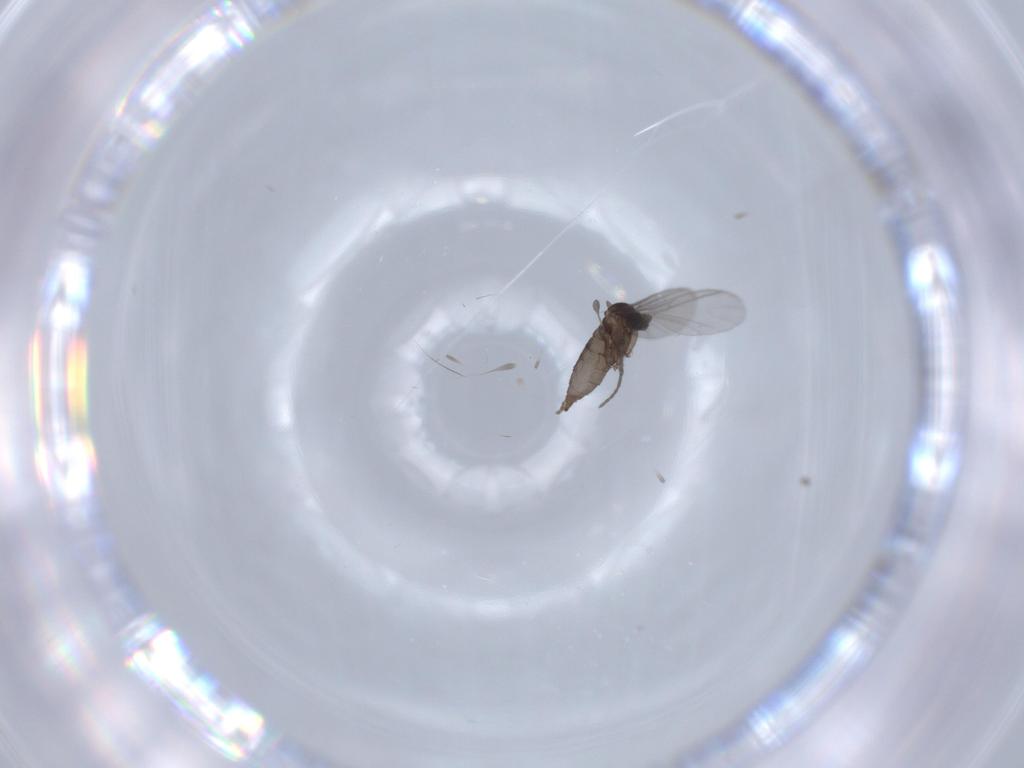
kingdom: Animalia
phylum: Arthropoda
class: Insecta
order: Diptera
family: Sciaridae
